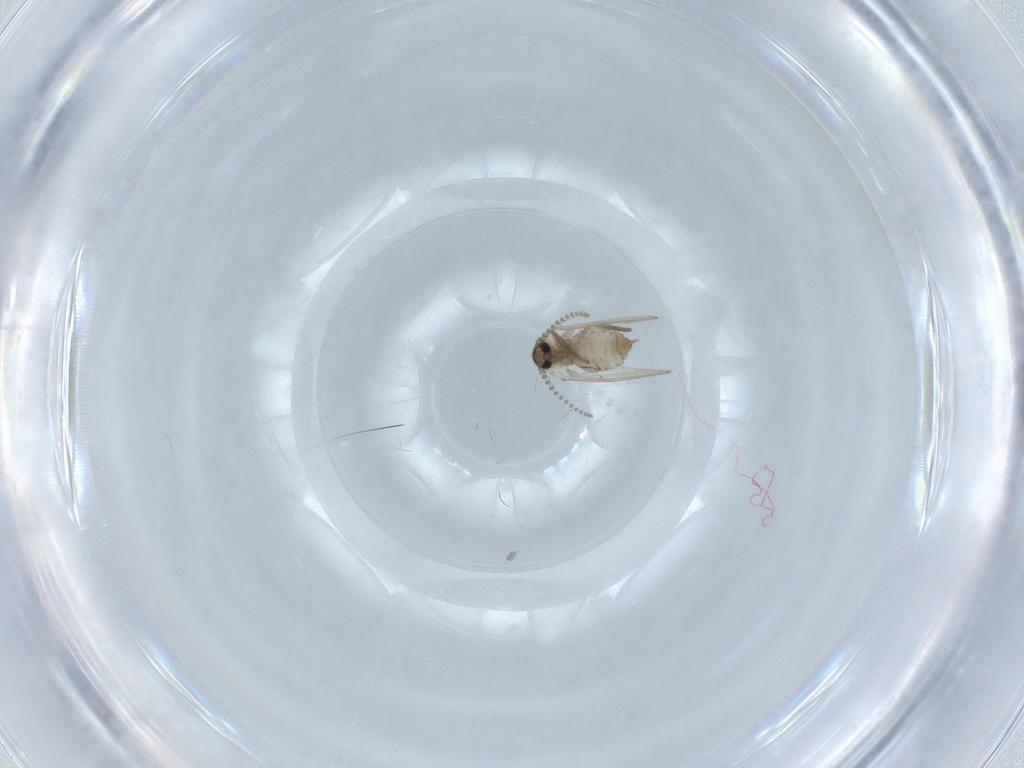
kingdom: Animalia
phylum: Arthropoda
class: Insecta
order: Diptera
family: Psychodidae
